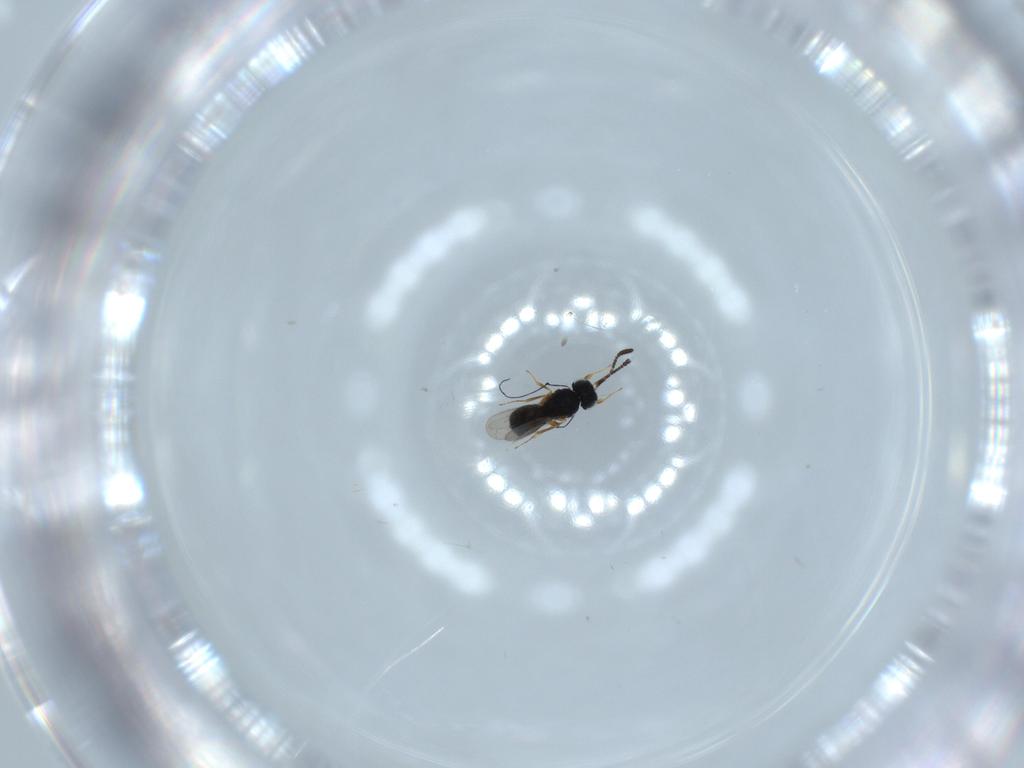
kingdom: Animalia
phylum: Arthropoda
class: Insecta
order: Hymenoptera
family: Scelionidae
